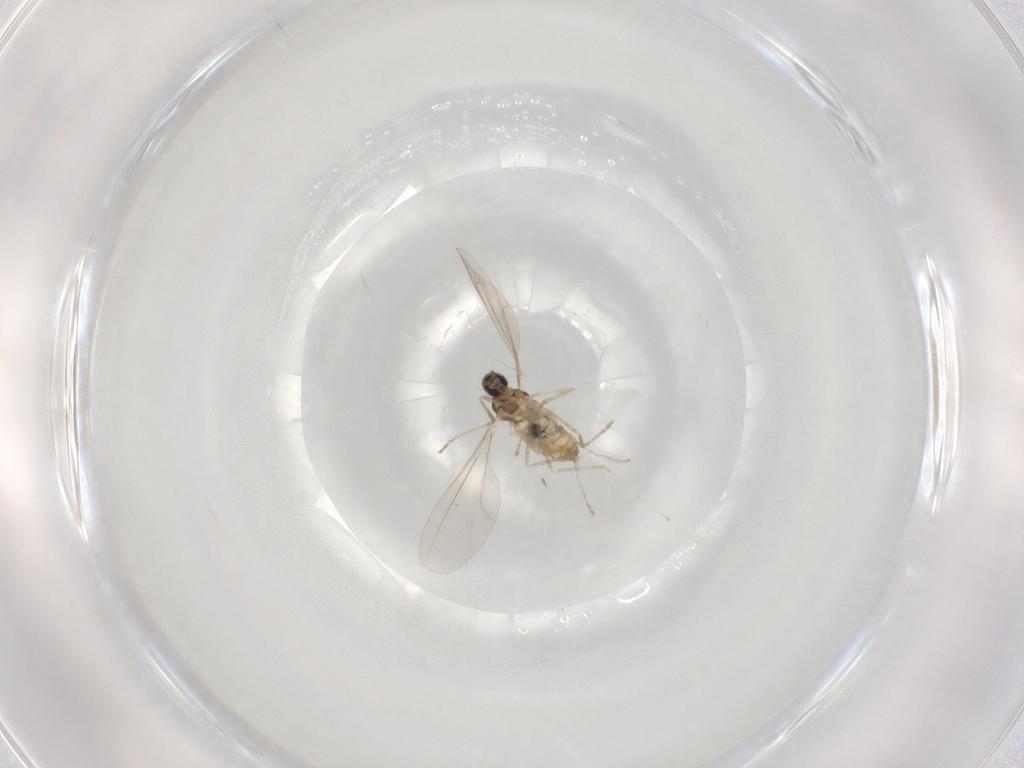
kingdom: Animalia
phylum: Arthropoda
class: Insecta
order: Diptera
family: Cecidomyiidae
